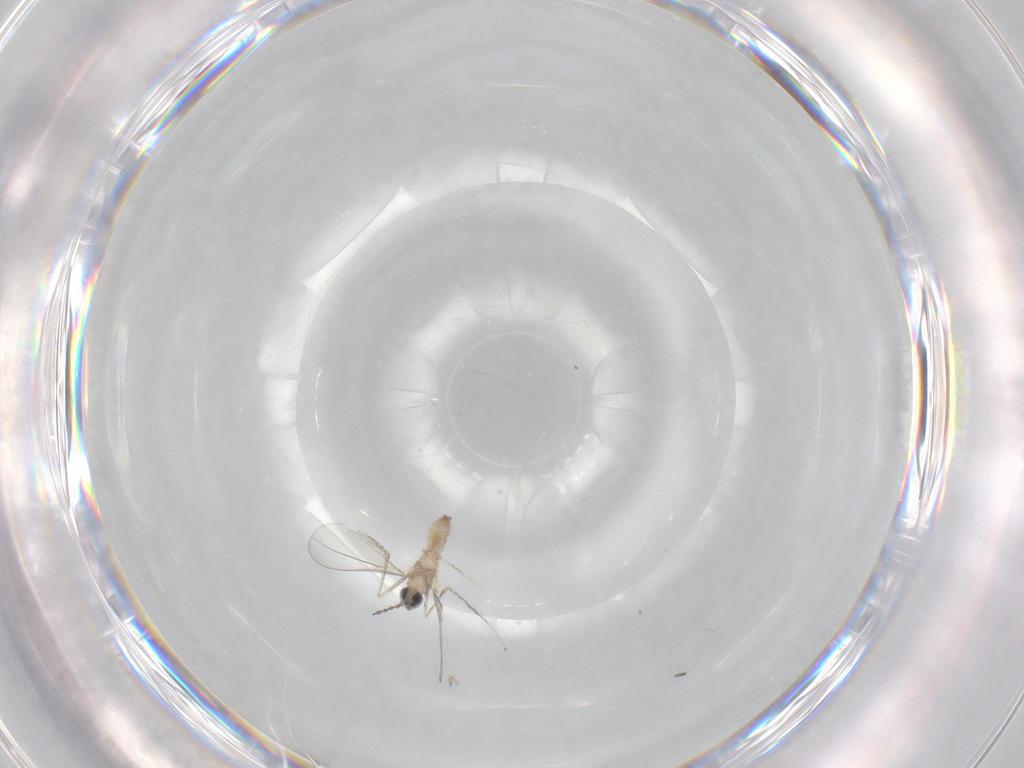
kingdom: Animalia
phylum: Arthropoda
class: Insecta
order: Diptera
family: Cecidomyiidae
